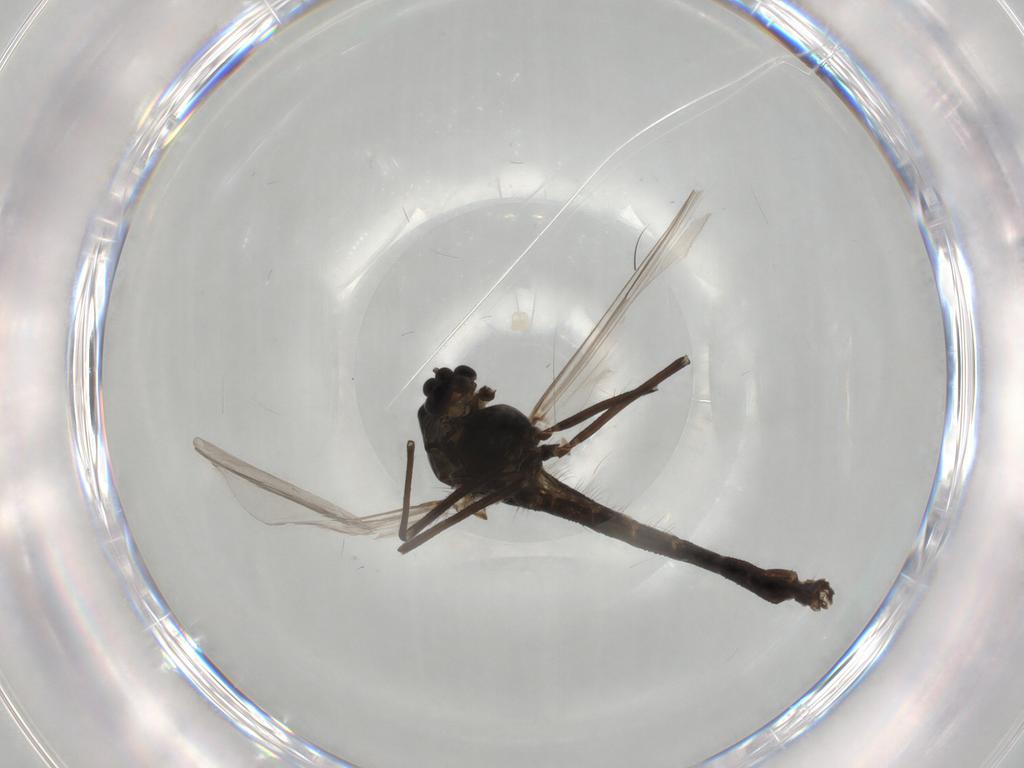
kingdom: Animalia
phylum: Arthropoda
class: Insecta
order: Diptera
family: Chironomidae
